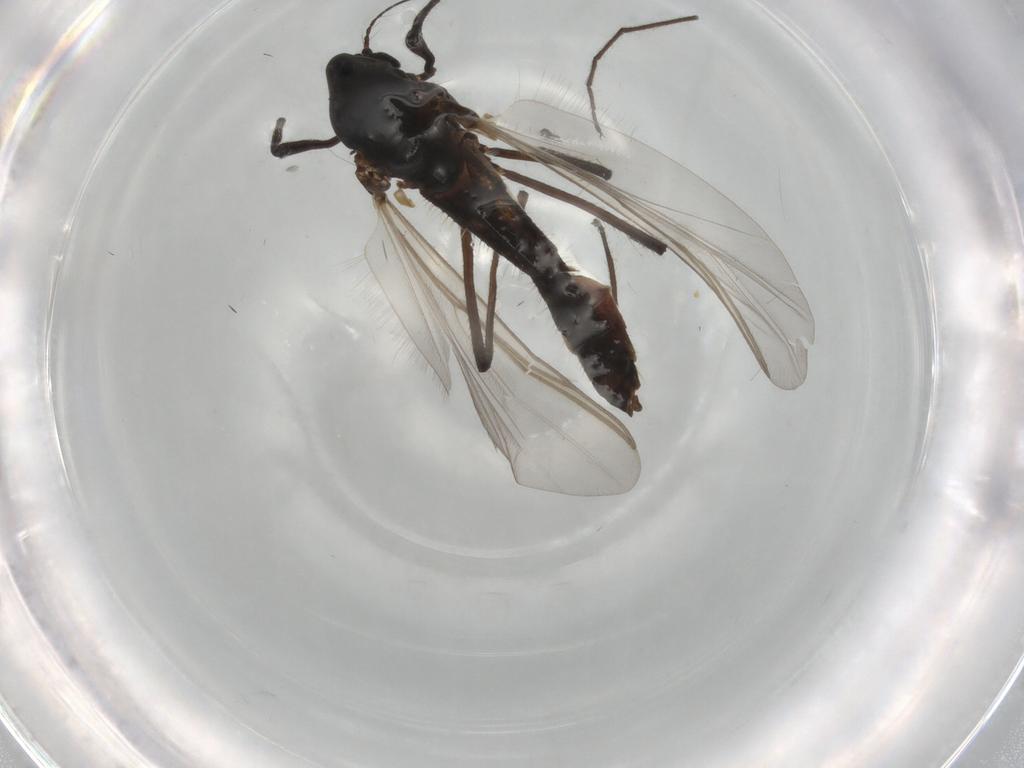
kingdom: Animalia
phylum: Arthropoda
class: Insecta
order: Diptera
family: Chironomidae
